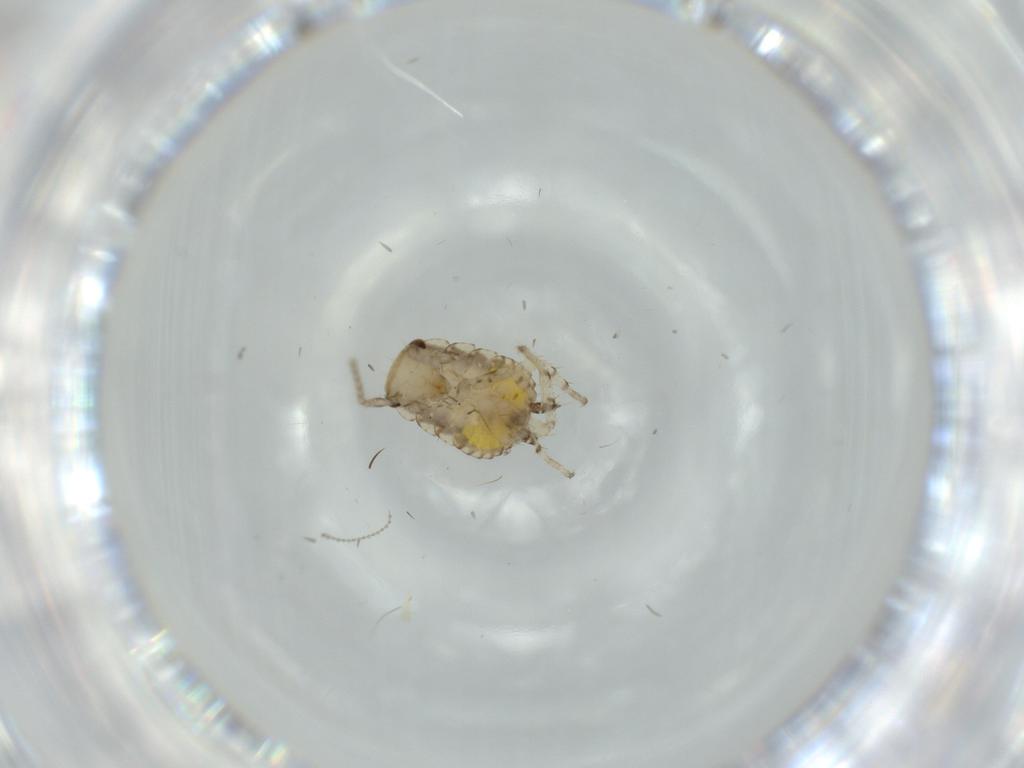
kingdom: Animalia
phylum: Arthropoda
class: Insecta
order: Blattodea
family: Ectobiidae
